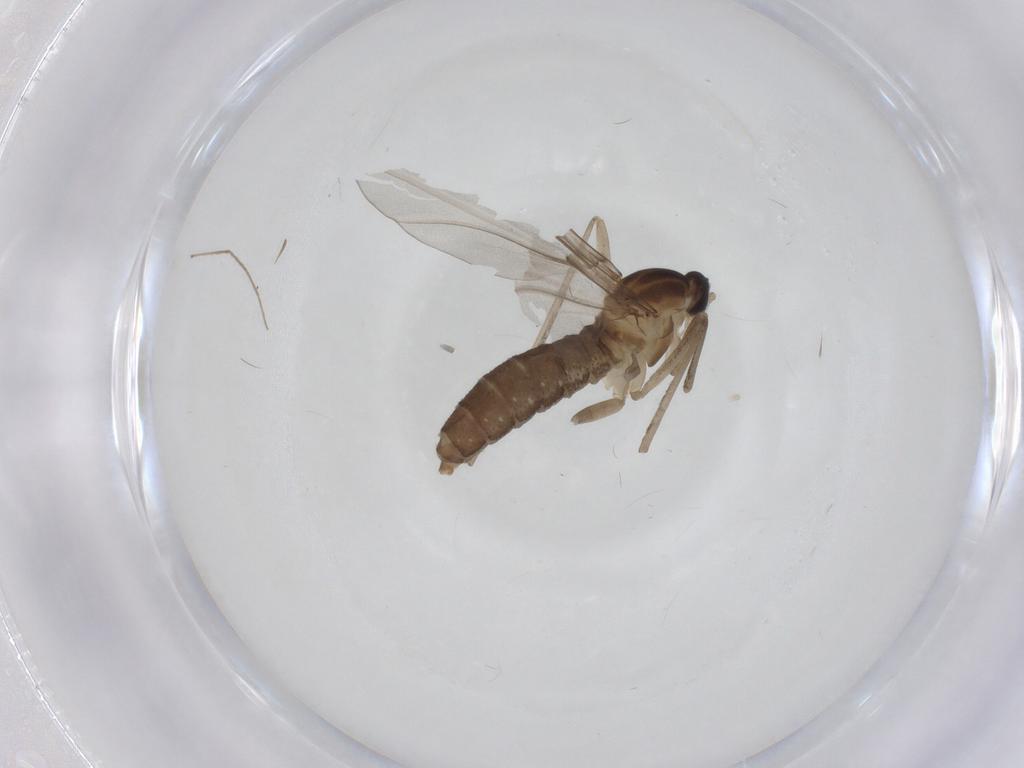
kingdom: Animalia
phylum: Arthropoda
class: Insecta
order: Diptera
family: Cecidomyiidae
